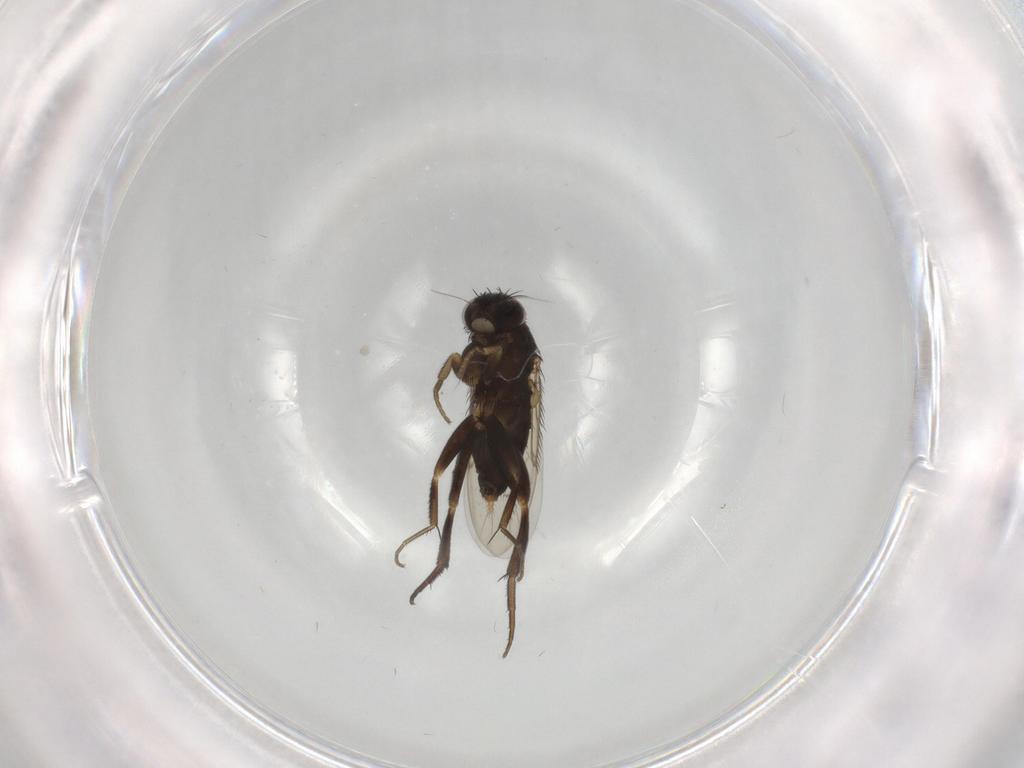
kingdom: Animalia
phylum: Arthropoda
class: Insecta
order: Diptera
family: Phoridae
